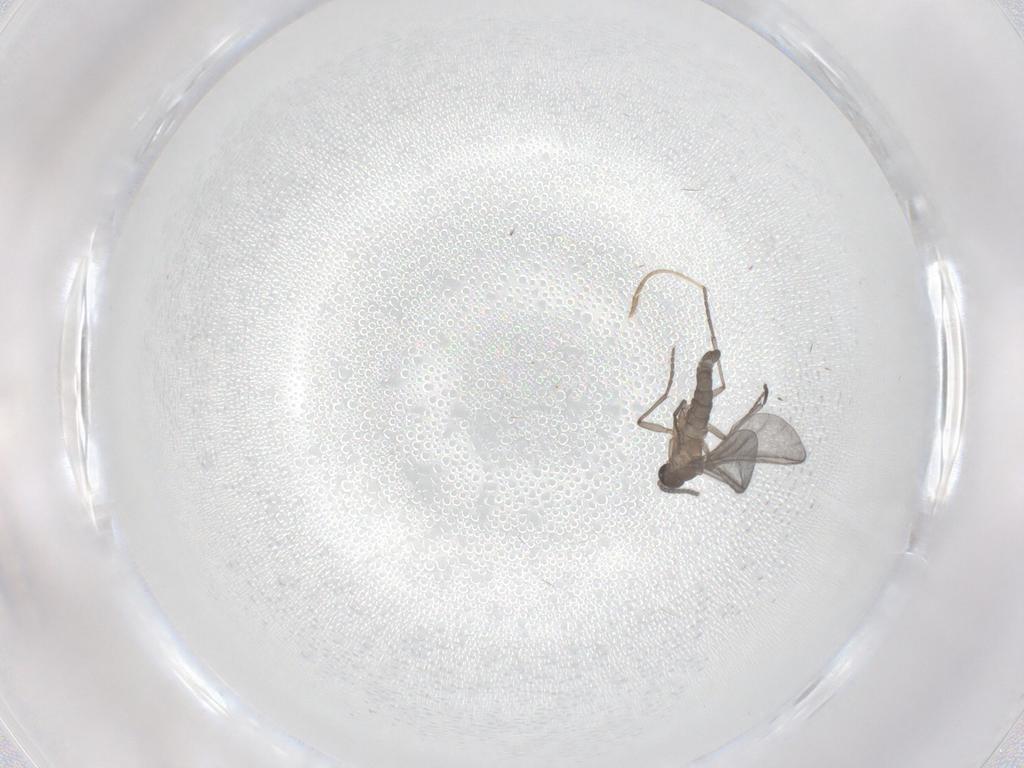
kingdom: Animalia
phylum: Arthropoda
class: Insecta
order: Diptera
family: Sciaridae
